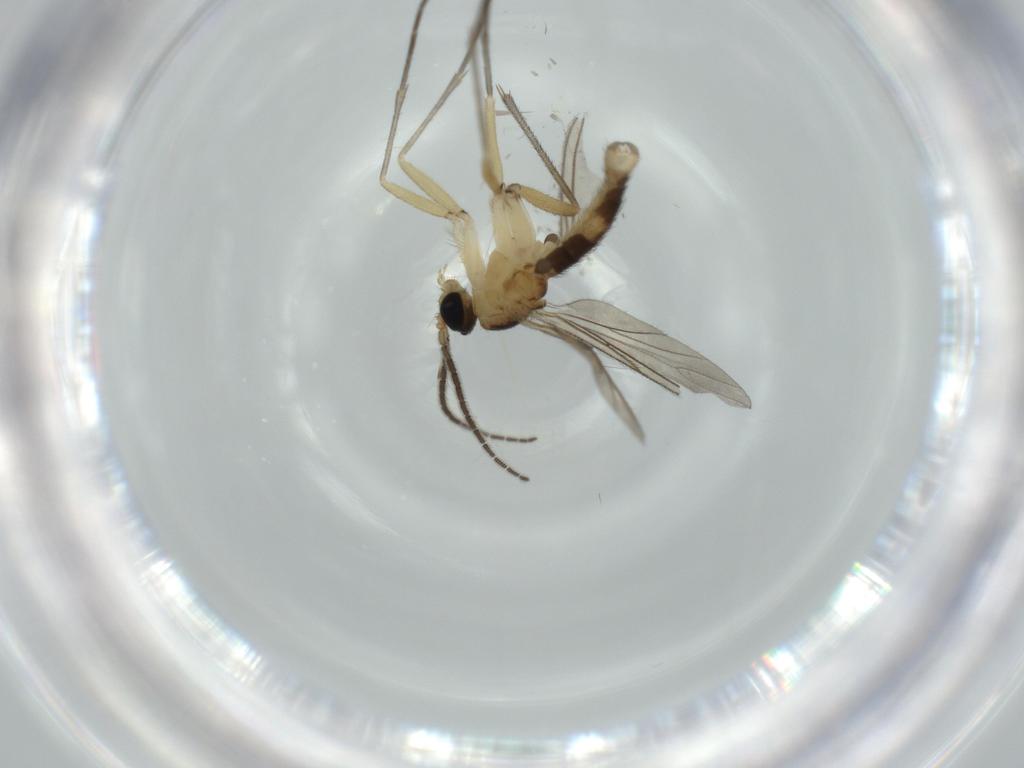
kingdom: Animalia
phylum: Arthropoda
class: Insecta
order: Diptera
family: Sciaridae
